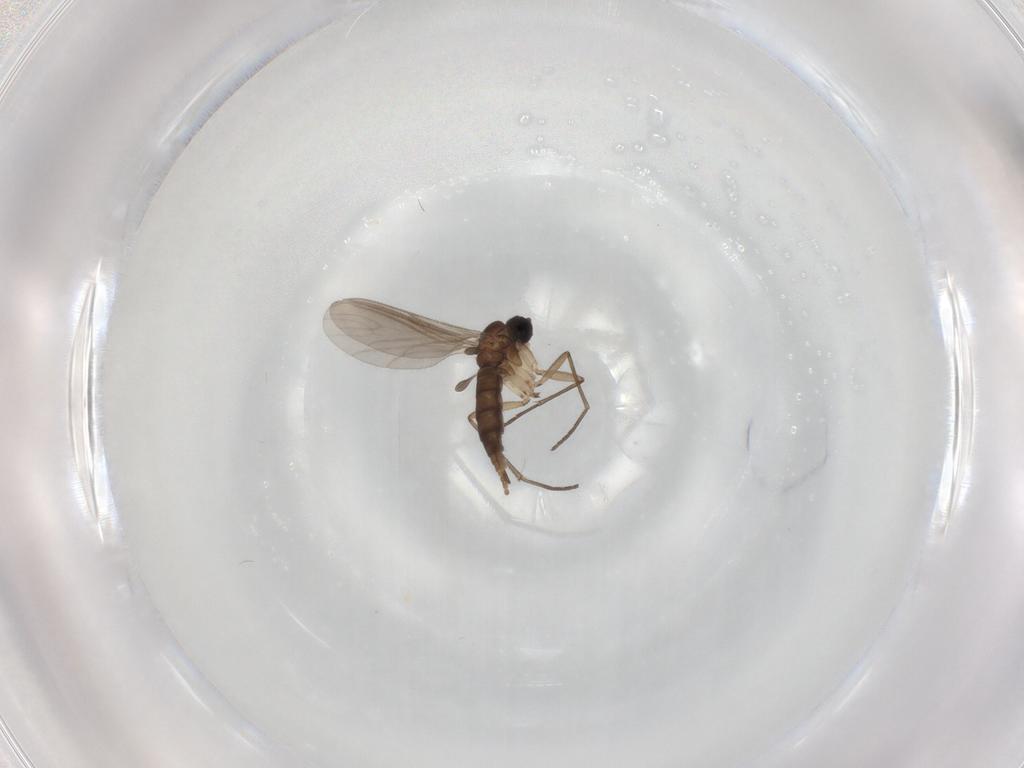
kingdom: Animalia
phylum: Arthropoda
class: Insecta
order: Diptera
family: Sciaridae
